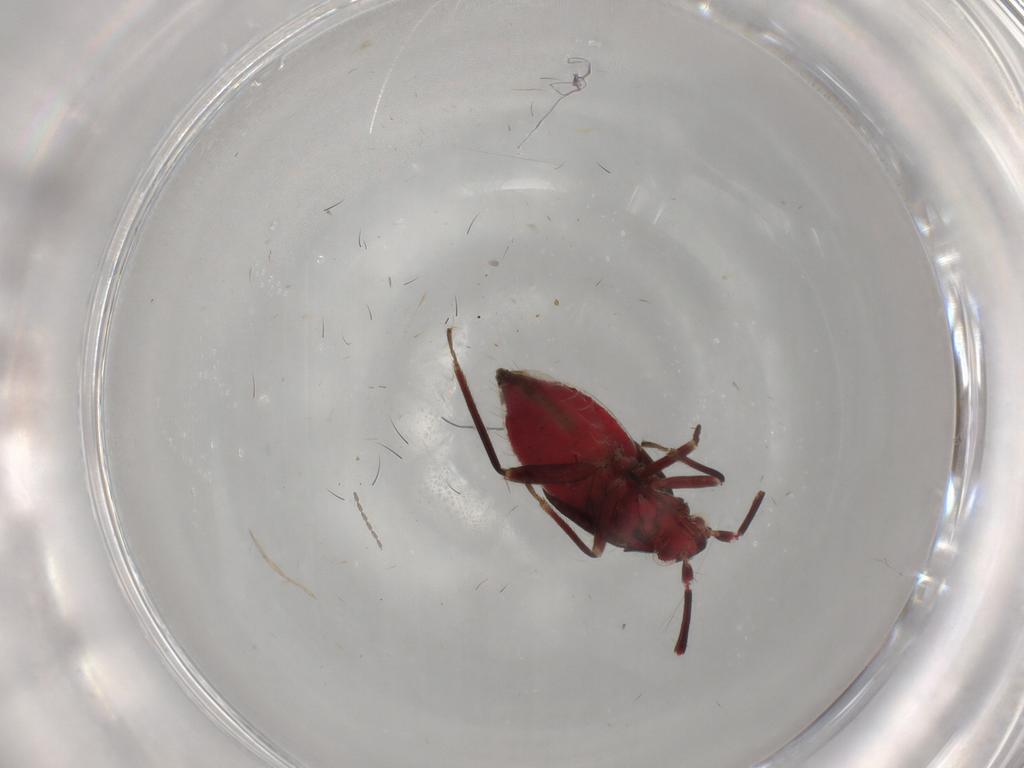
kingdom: Animalia
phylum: Arthropoda
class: Insecta
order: Hemiptera
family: Miridae
